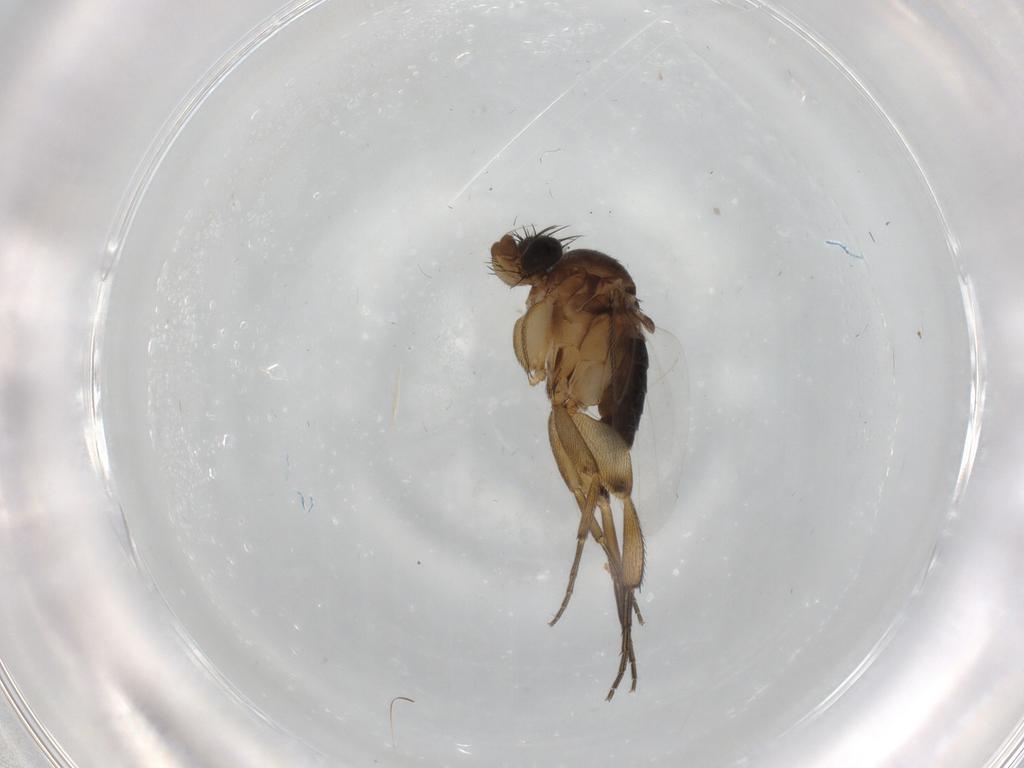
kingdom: Animalia
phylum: Arthropoda
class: Insecta
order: Diptera
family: Phoridae
